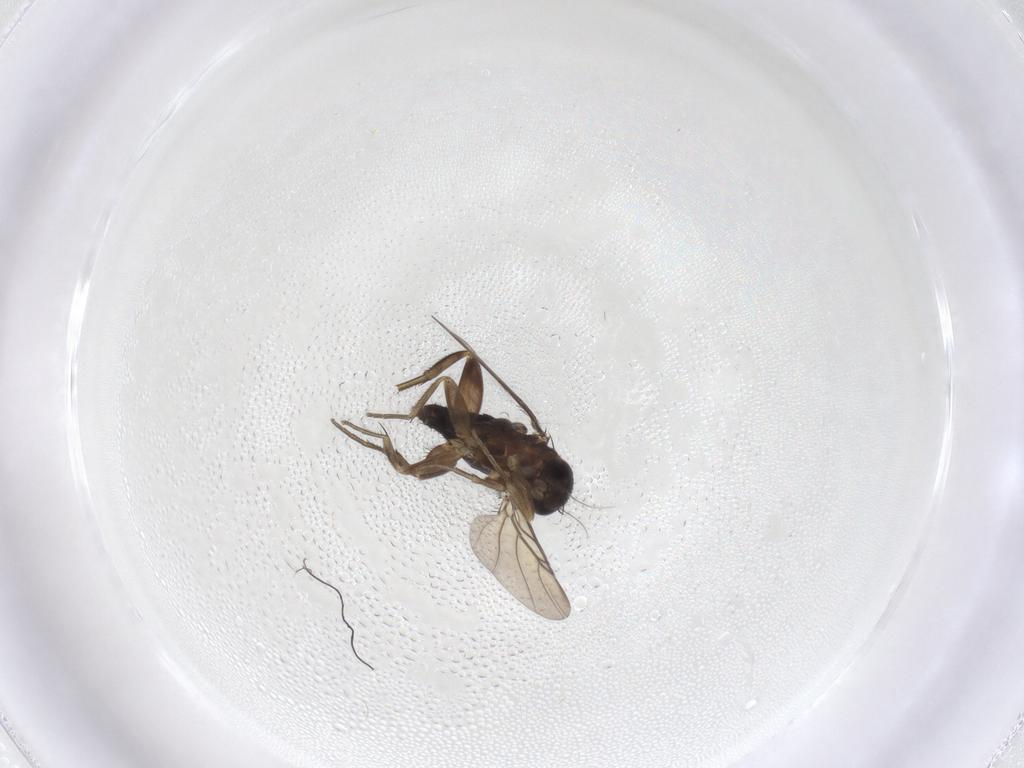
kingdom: Animalia
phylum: Arthropoda
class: Insecta
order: Diptera
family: Phoridae
